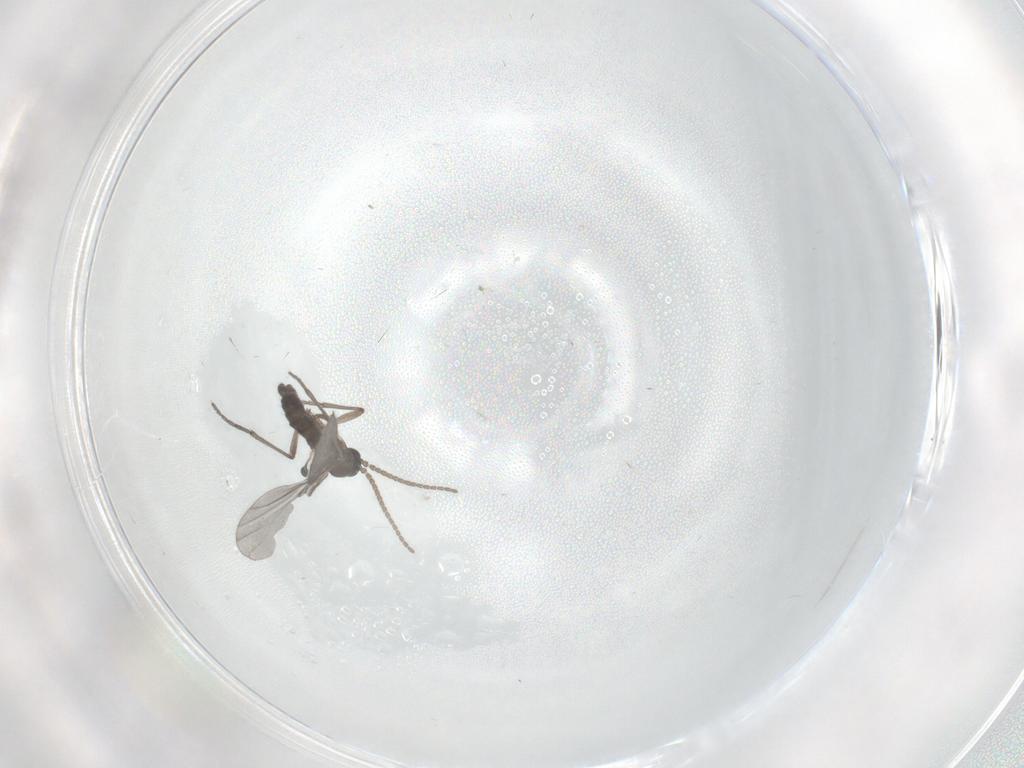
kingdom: Animalia
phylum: Arthropoda
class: Insecta
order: Diptera
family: Sciaridae
